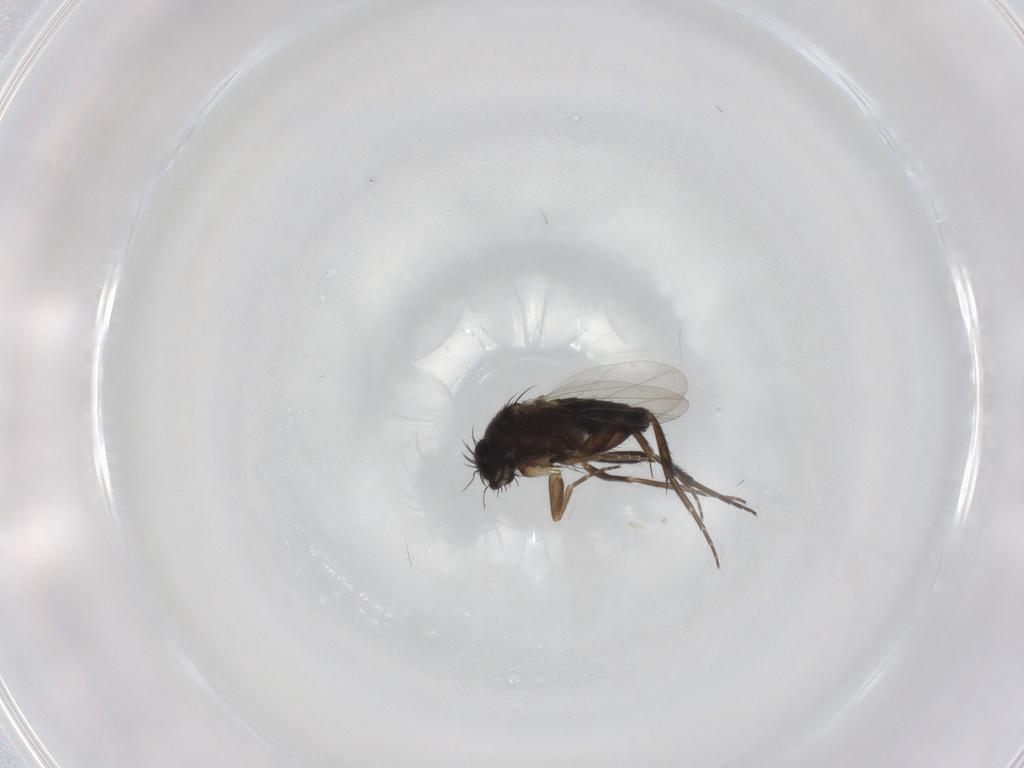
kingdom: Animalia
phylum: Arthropoda
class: Insecta
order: Diptera
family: Phoridae
